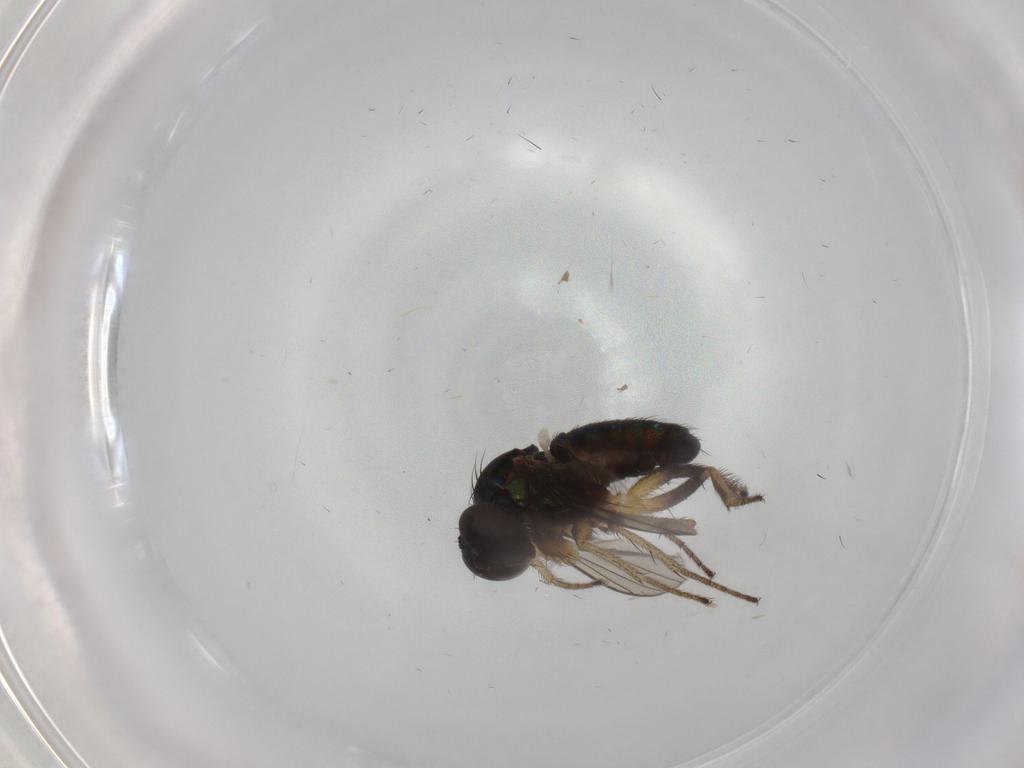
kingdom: Animalia
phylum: Arthropoda
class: Insecta
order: Diptera
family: Dolichopodidae
